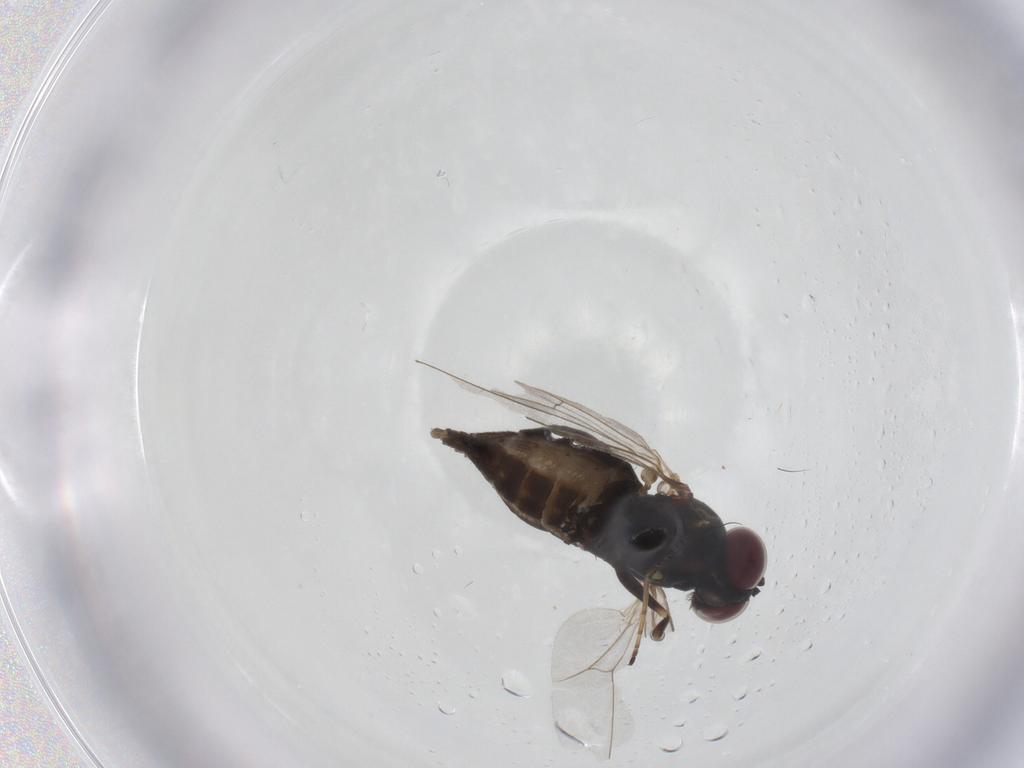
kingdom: Animalia
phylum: Arthropoda
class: Insecta
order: Diptera
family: Dolichopodidae
